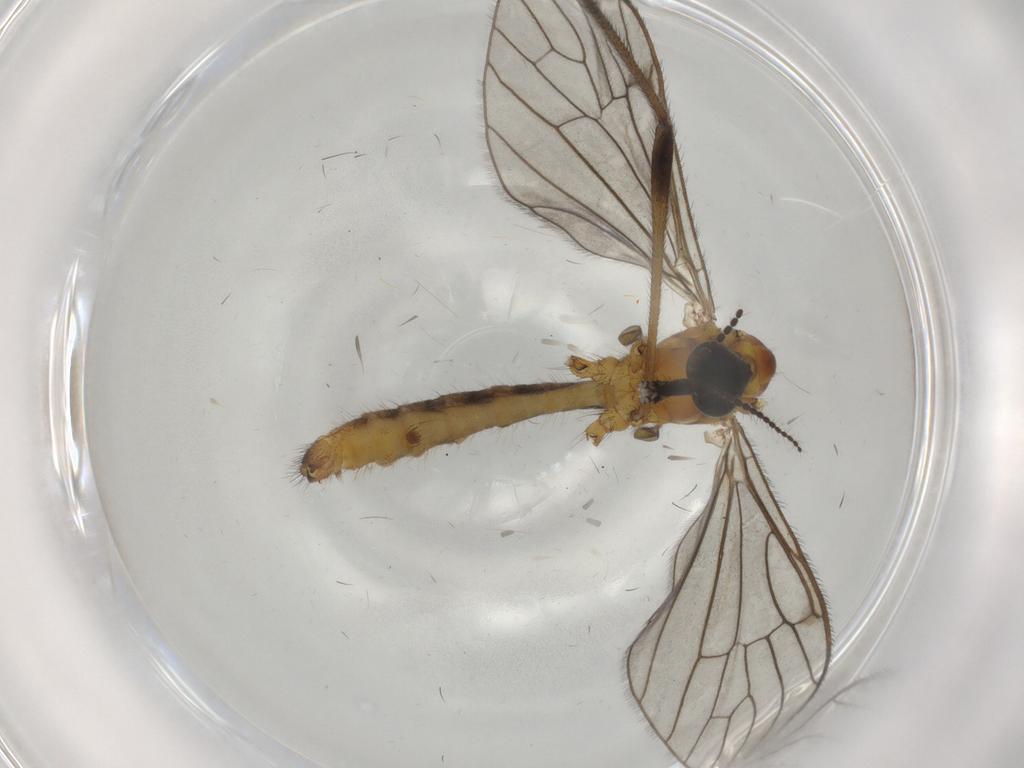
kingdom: Animalia
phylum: Arthropoda
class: Insecta
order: Diptera
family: Phoridae
